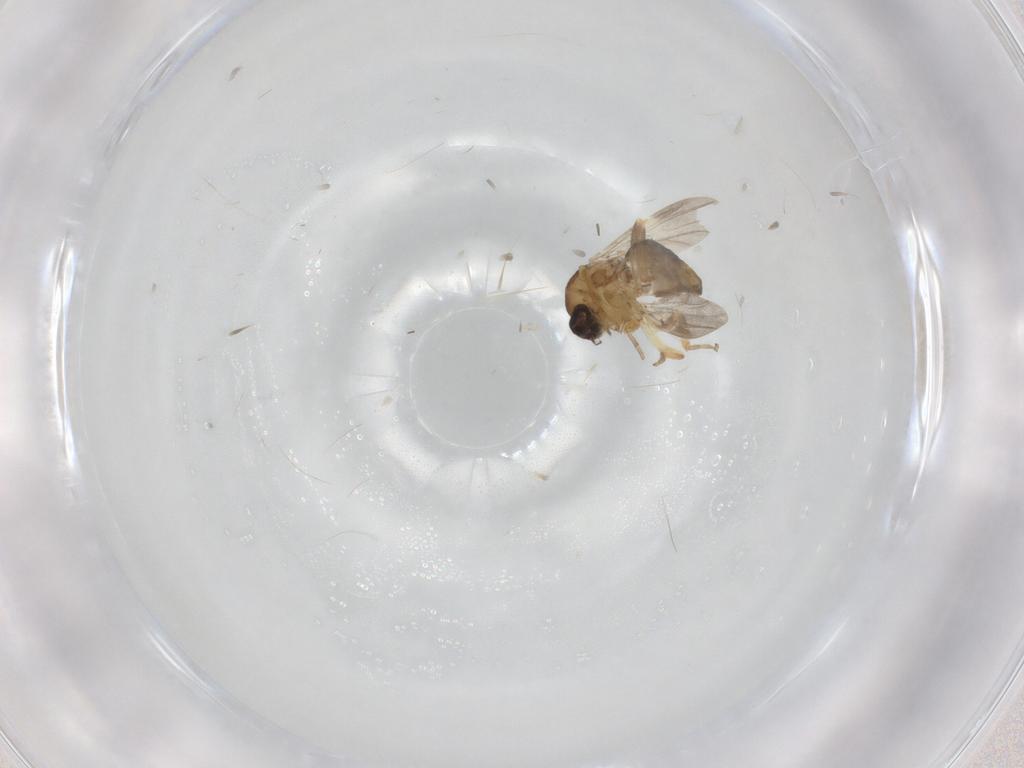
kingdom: Animalia
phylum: Arthropoda
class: Insecta
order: Diptera
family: Ceratopogonidae
